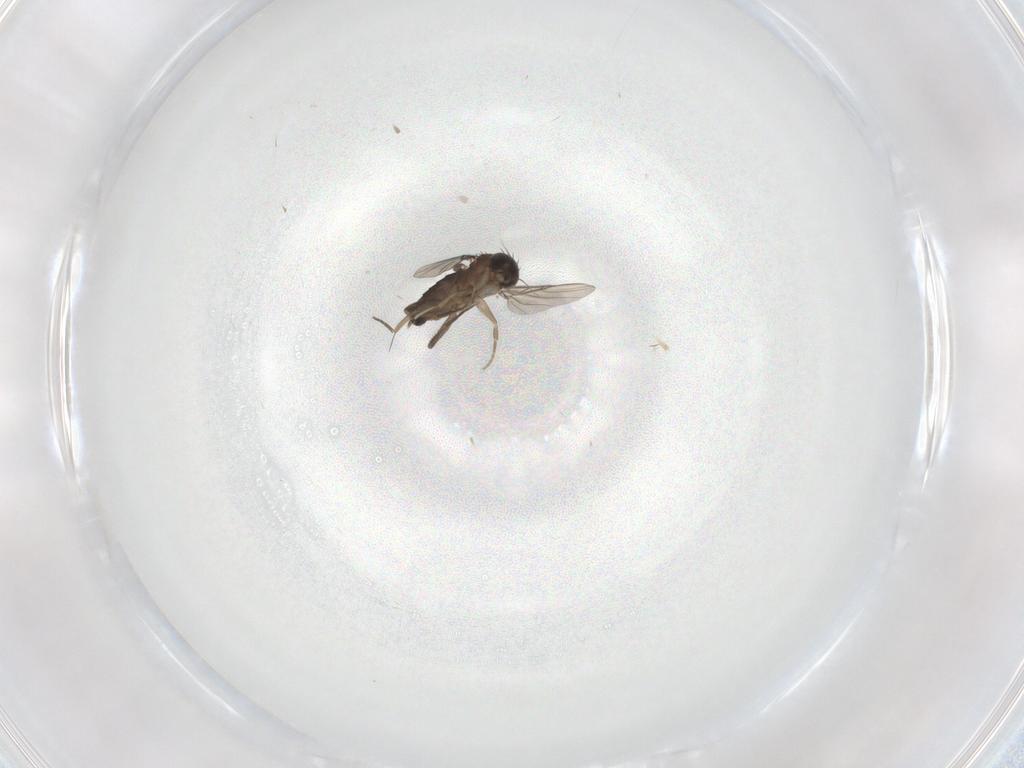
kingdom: Animalia
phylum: Arthropoda
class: Insecta
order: Diptera
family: Phoridae
